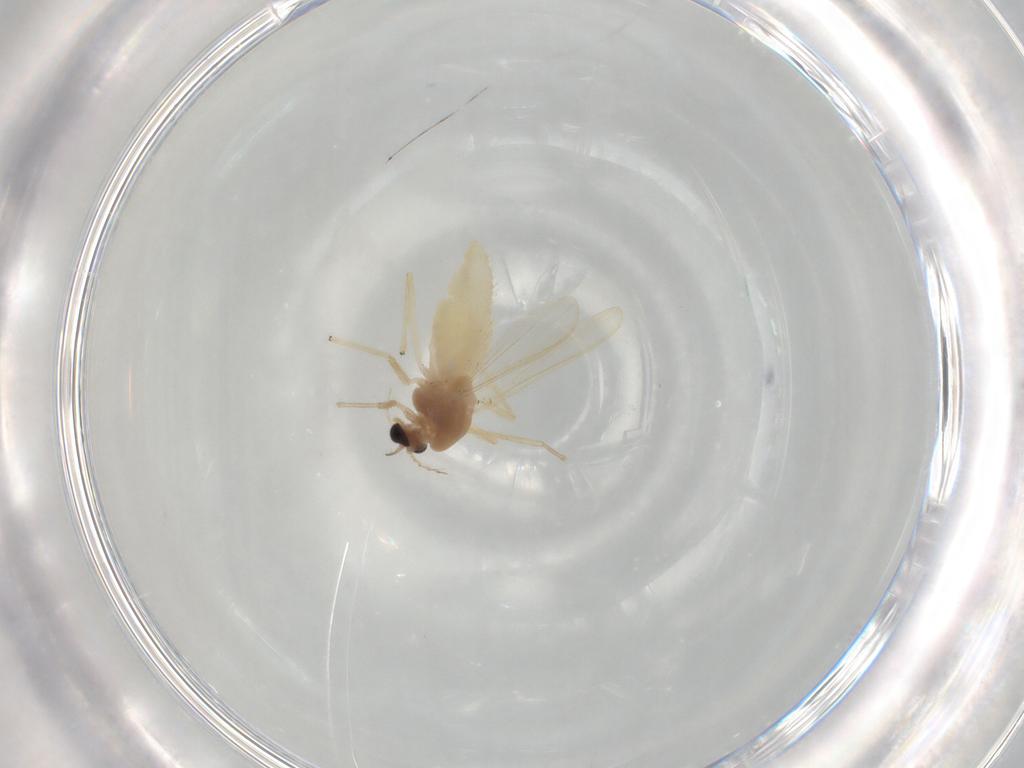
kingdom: Animalia
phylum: Arthropoda
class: Insecta
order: Diptera
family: Chironomidae
